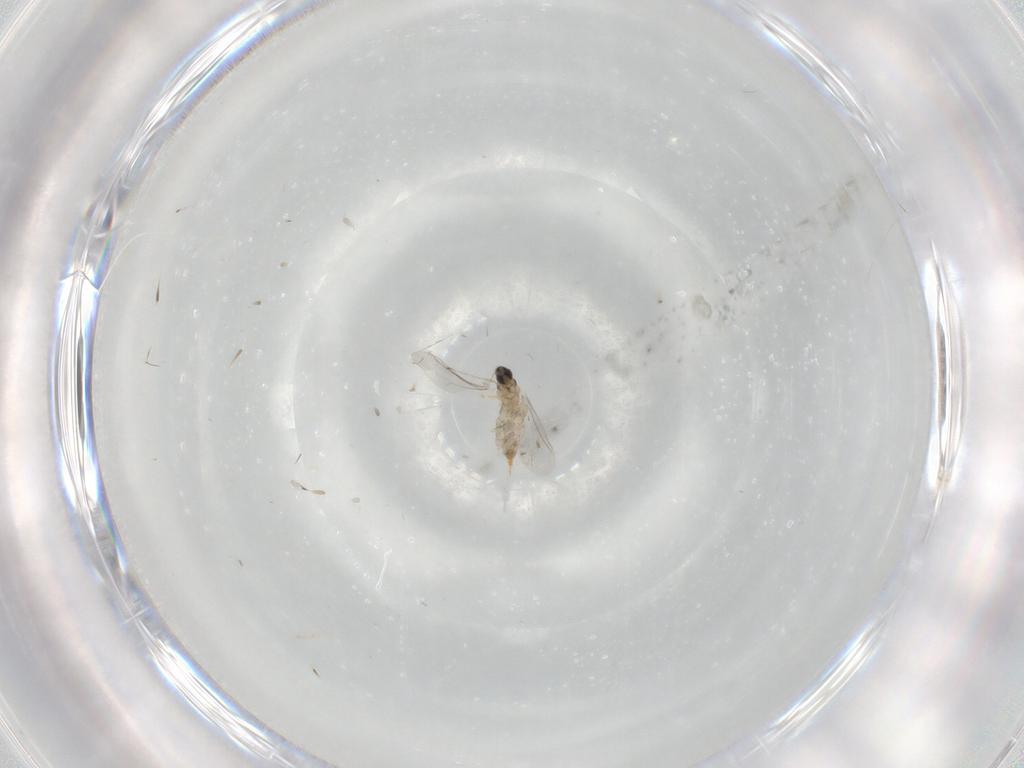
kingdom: Animalia
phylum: Arthropoda
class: Insecta
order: Diptera
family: Cecidomyiidae
